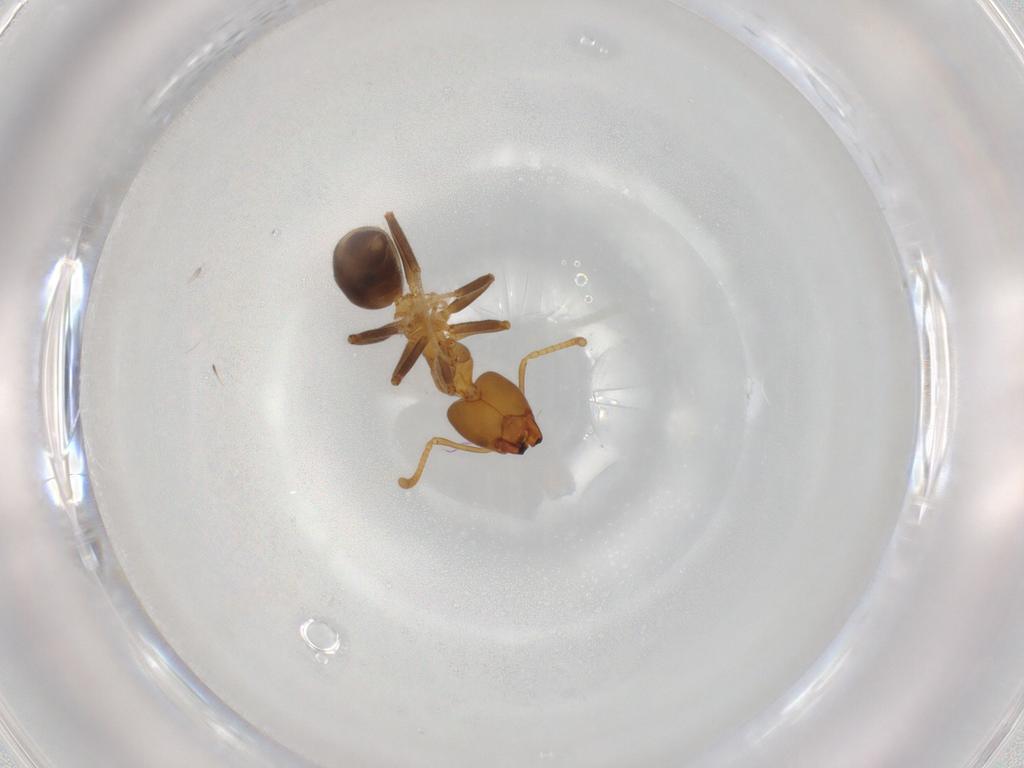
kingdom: Animalia
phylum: Arthropoda
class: Insecta
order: Hymenoptera
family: Formicidae
